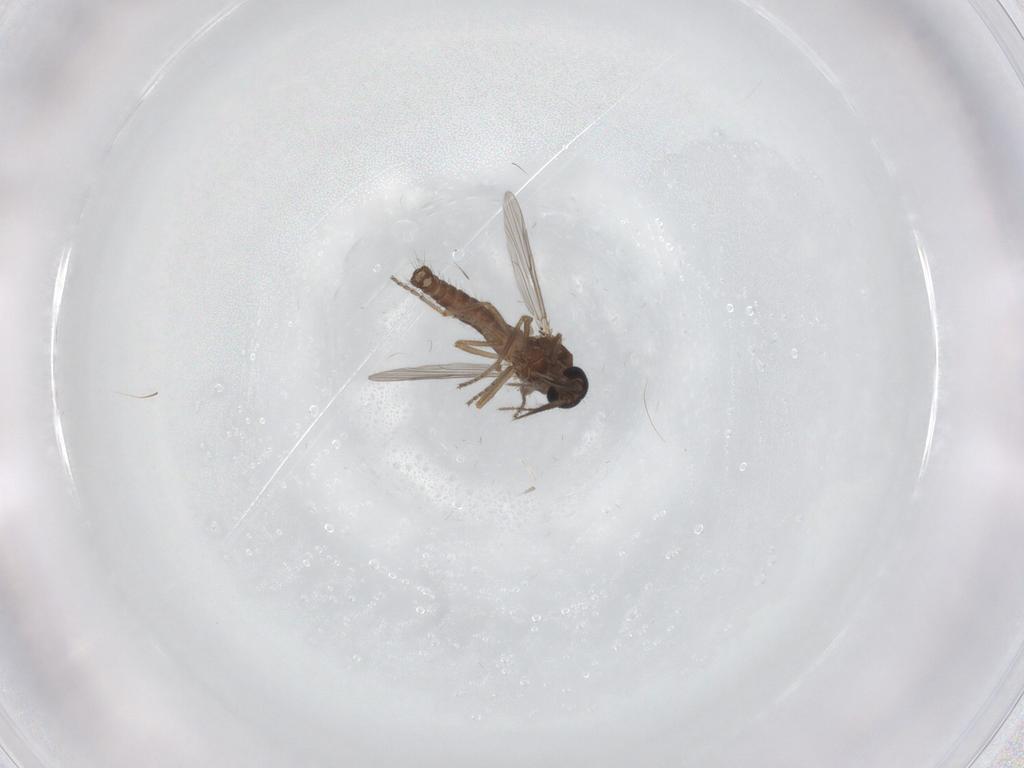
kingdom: Animalia
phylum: Arthropoda
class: Insecta
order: Diptera
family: Ceratopogonidae
